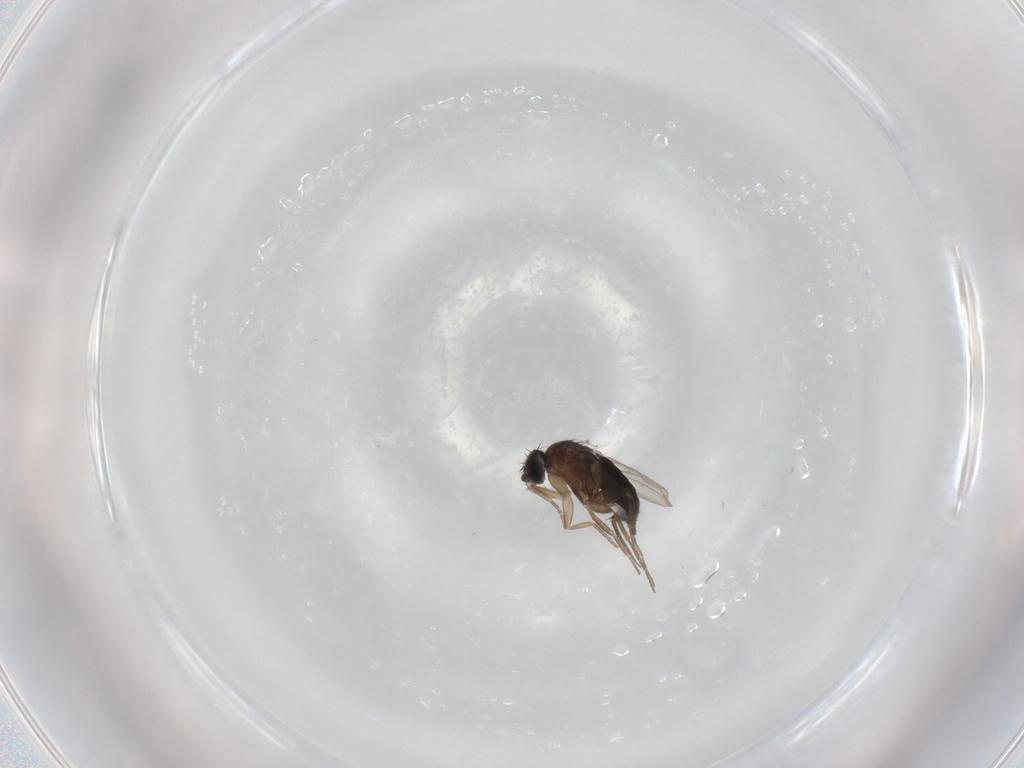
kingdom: Animalia
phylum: Arthropoda
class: Insecta
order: Diptera
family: Phoridae
